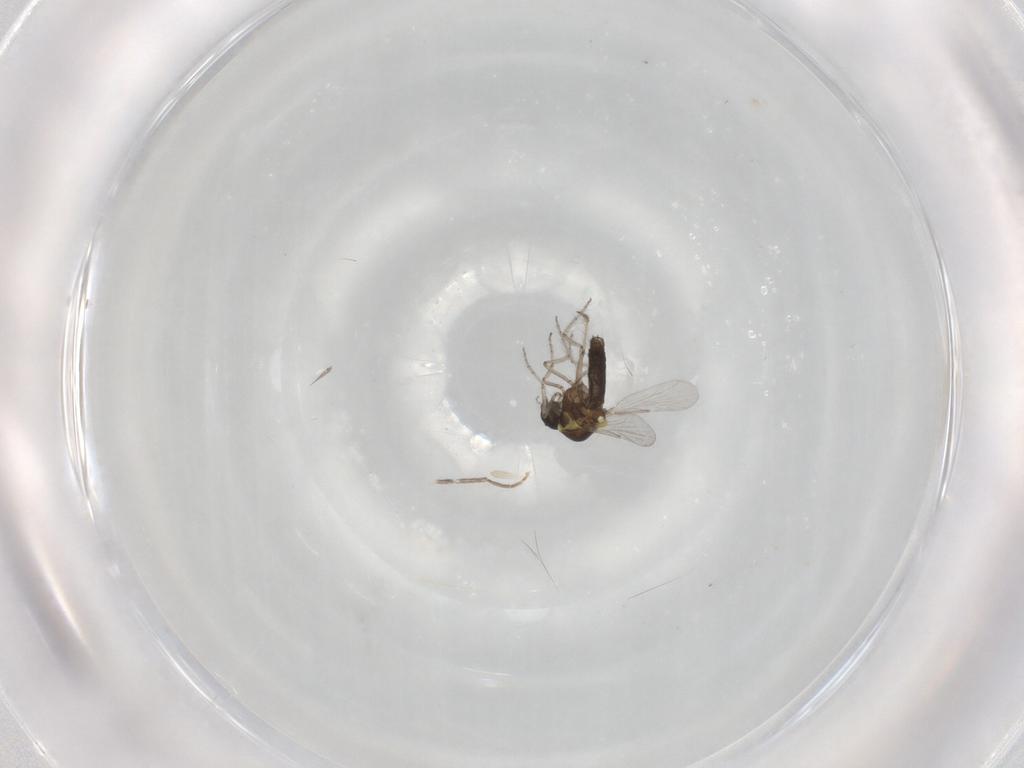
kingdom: Animalia
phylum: Arthropoda
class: Insecta
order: Diptera
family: Ceratopogonidae
